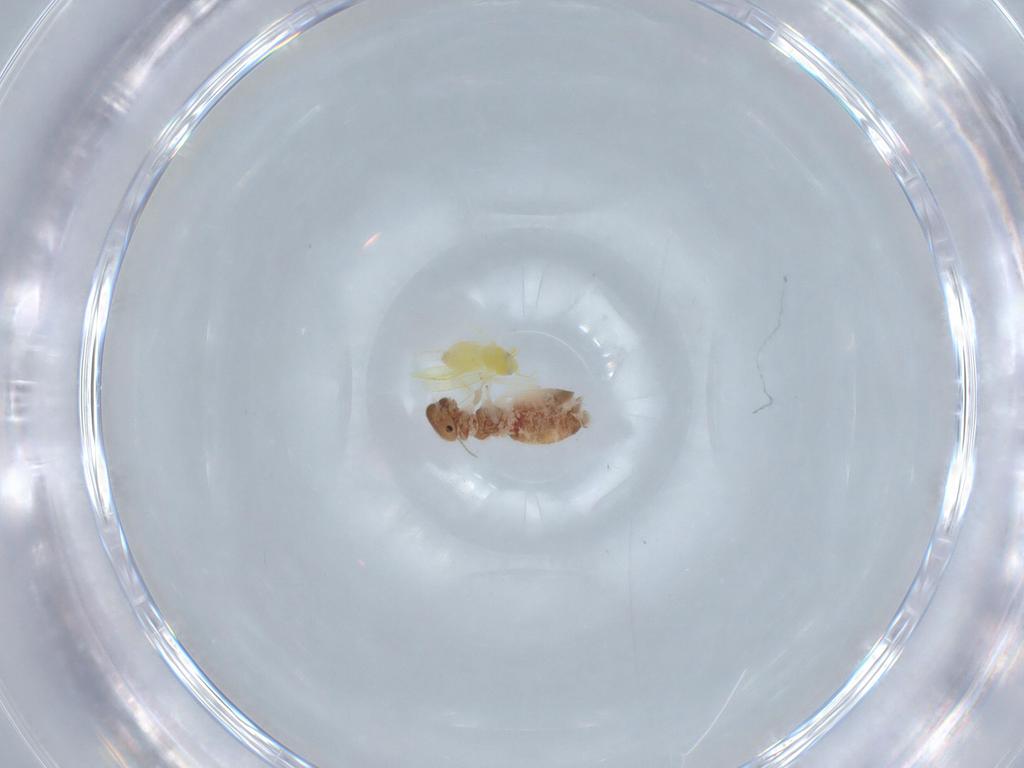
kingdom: Animalia
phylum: Arthropoda
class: Insecta
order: Hemiptera
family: Aleyrodidae
